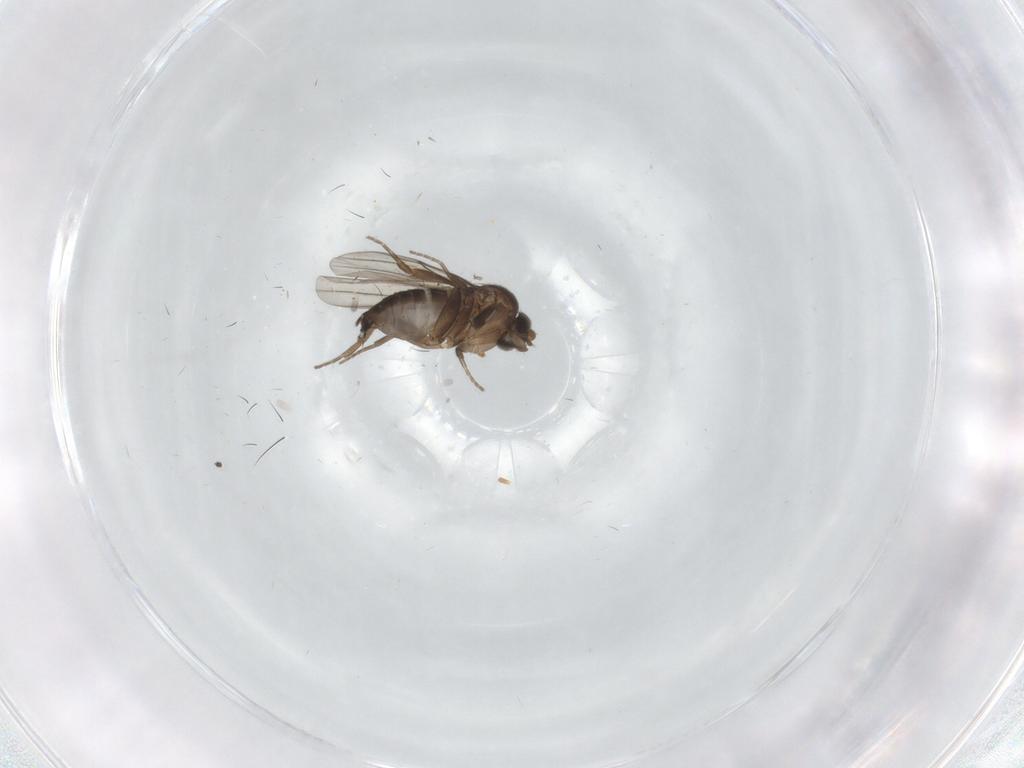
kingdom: Animalia
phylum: Arthropoda
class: Insecta
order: Diptera
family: Phoridae
